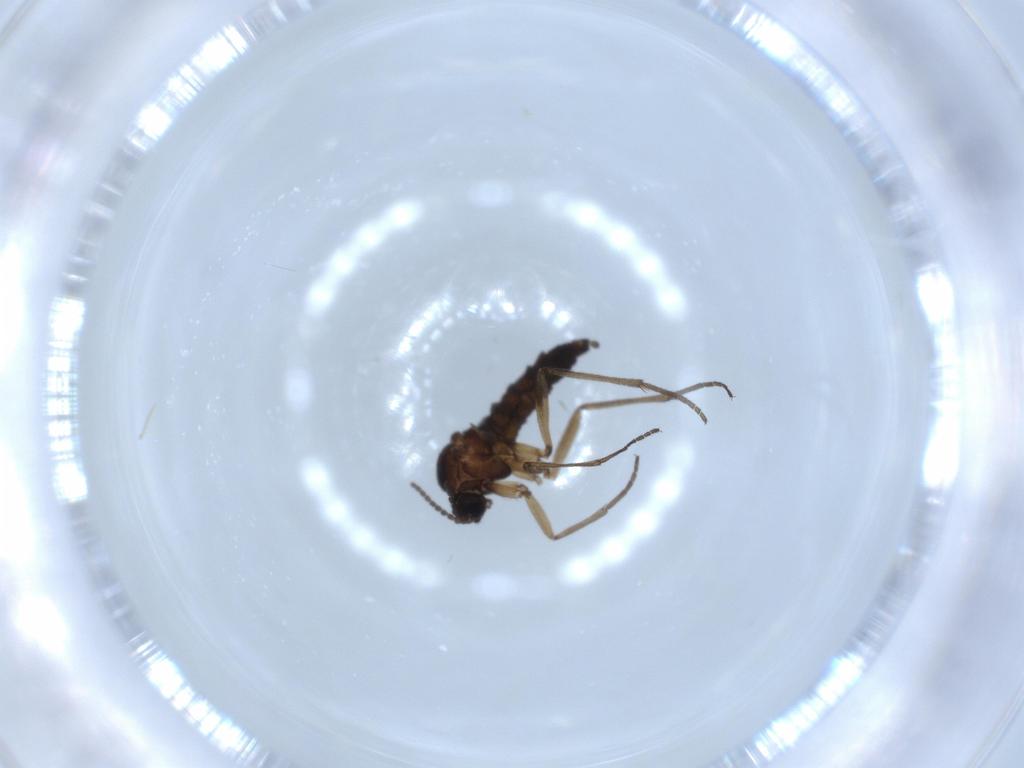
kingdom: Animalia
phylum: Arthropoda
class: Insecta
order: Diptera
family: Sciaridae
